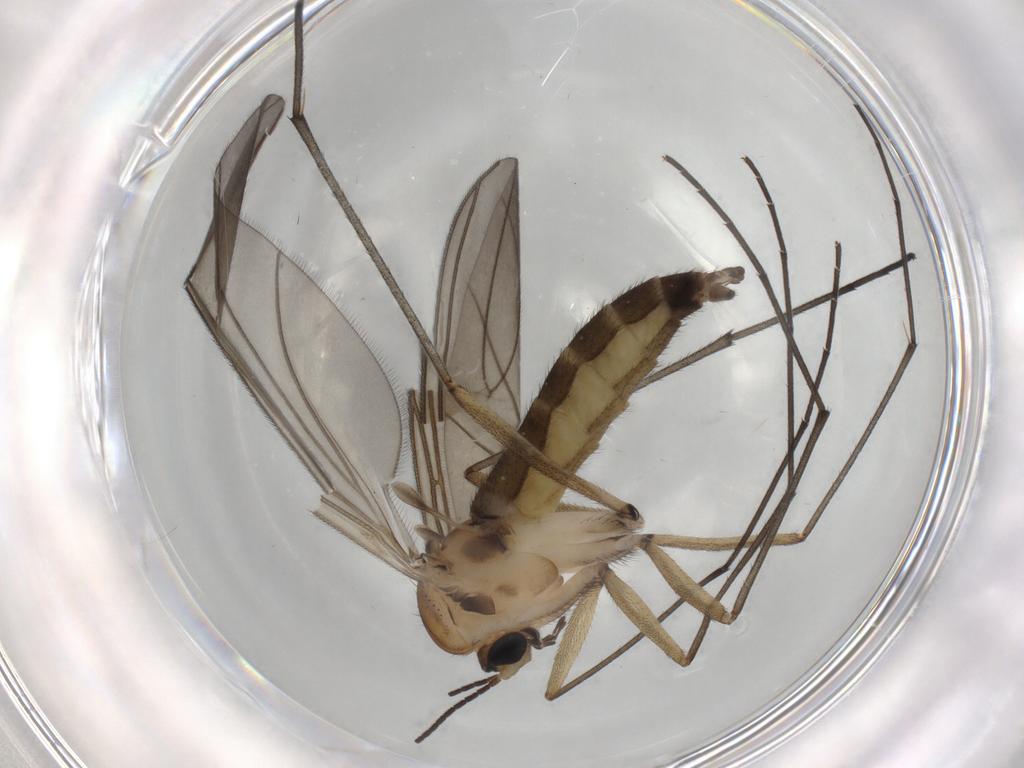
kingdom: Animalia
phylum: Arthropoda
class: Insecta
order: Diptera
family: Sciaridae
